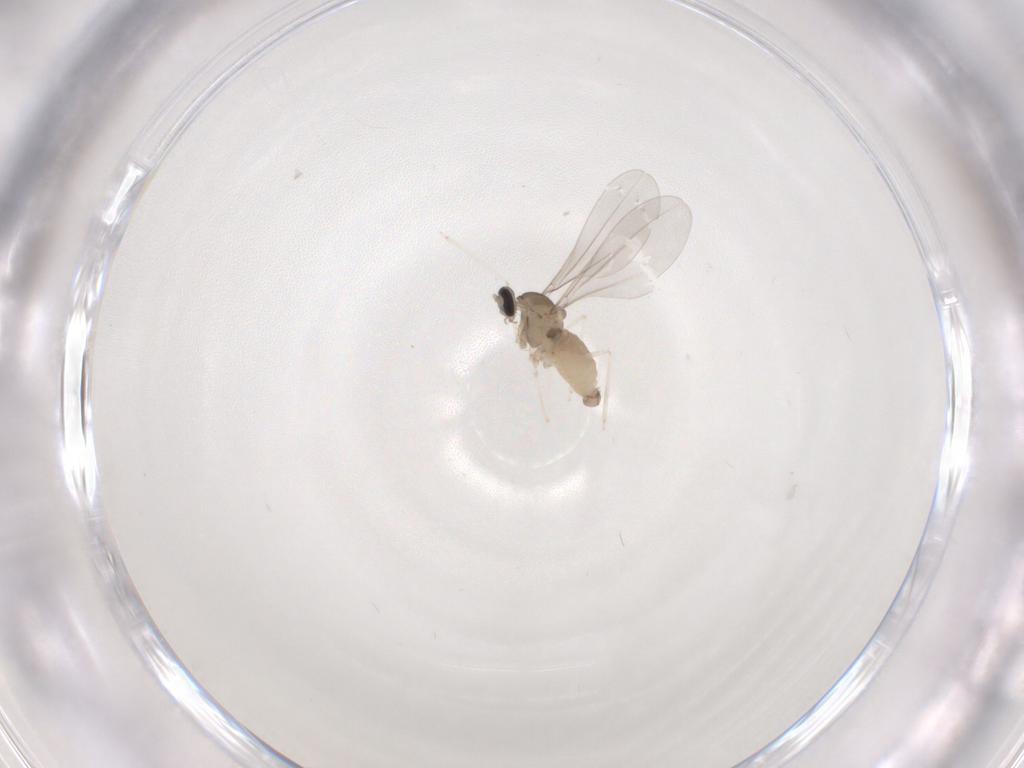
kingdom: Animalia
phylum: Arthropoda
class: Insecta
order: Diptera
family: Cecidomyiidae
